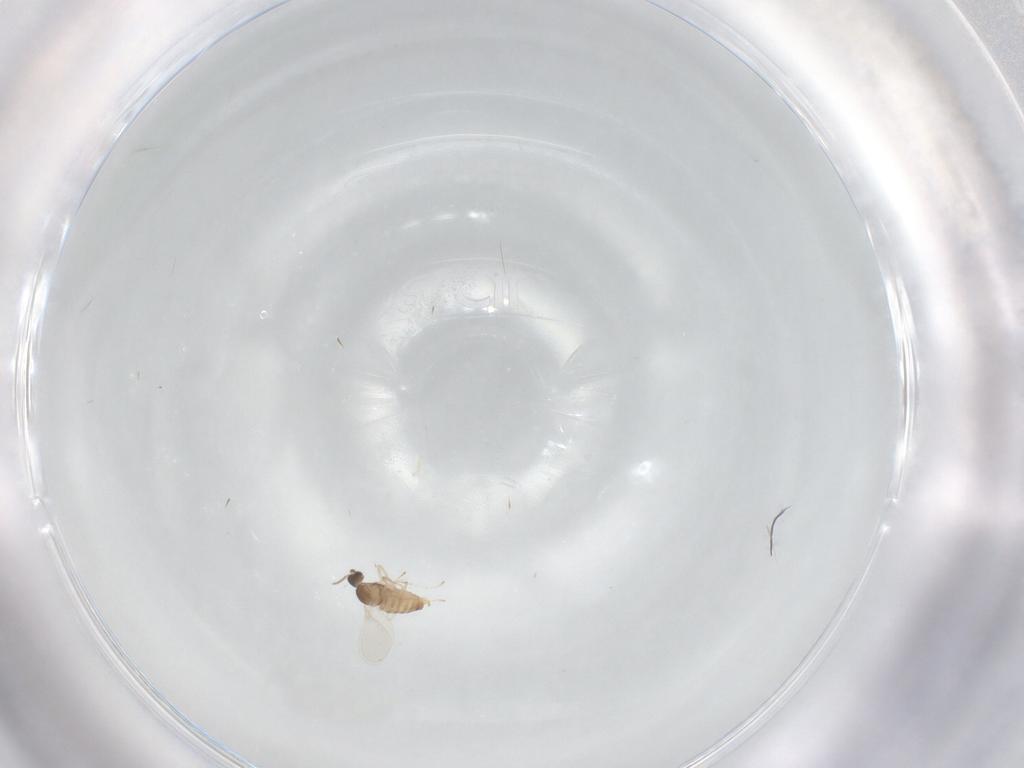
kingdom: Animalia
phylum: Arthropoda
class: Insecta
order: Diptera
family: Cecidomyiidae
